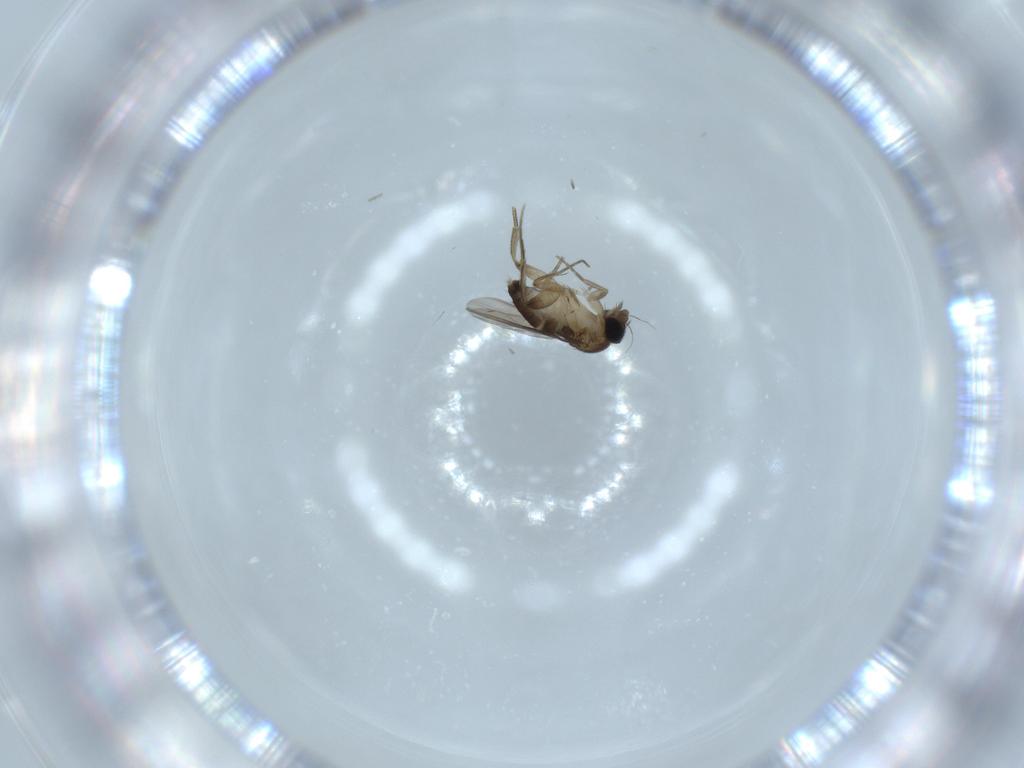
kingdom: Animalia
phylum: Arthropoda
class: Insecta
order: Diptera
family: Phoridae
